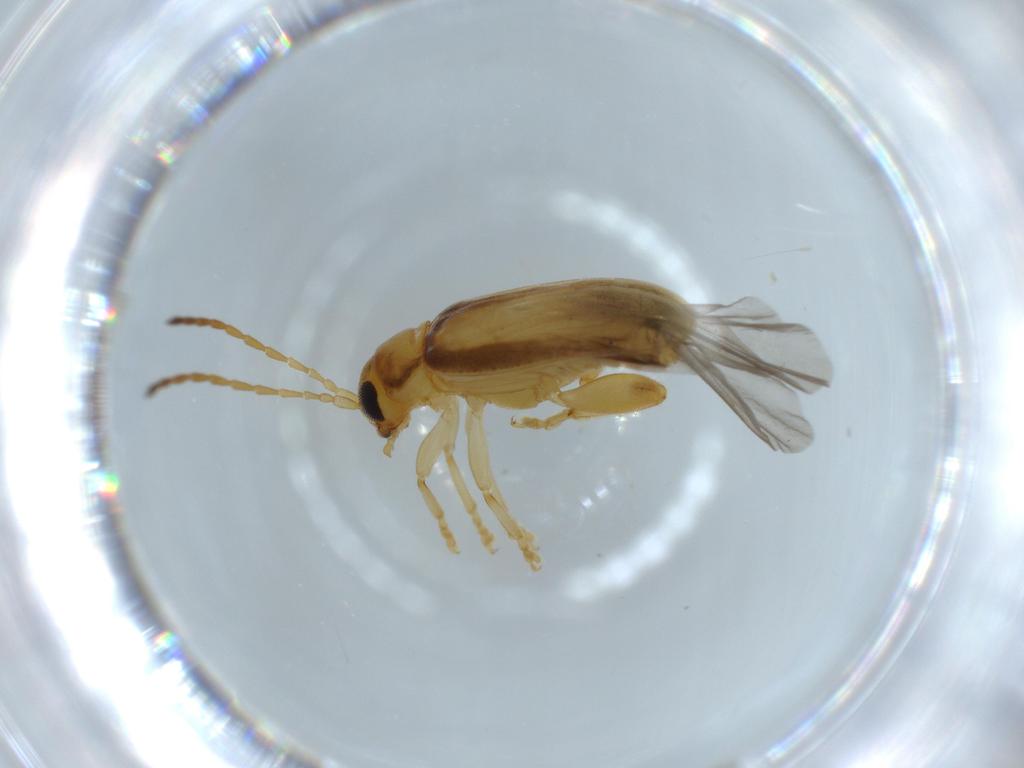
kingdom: Animalia
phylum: Arthropoda
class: Insecta
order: Coleoptera
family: Chrysomelidae
